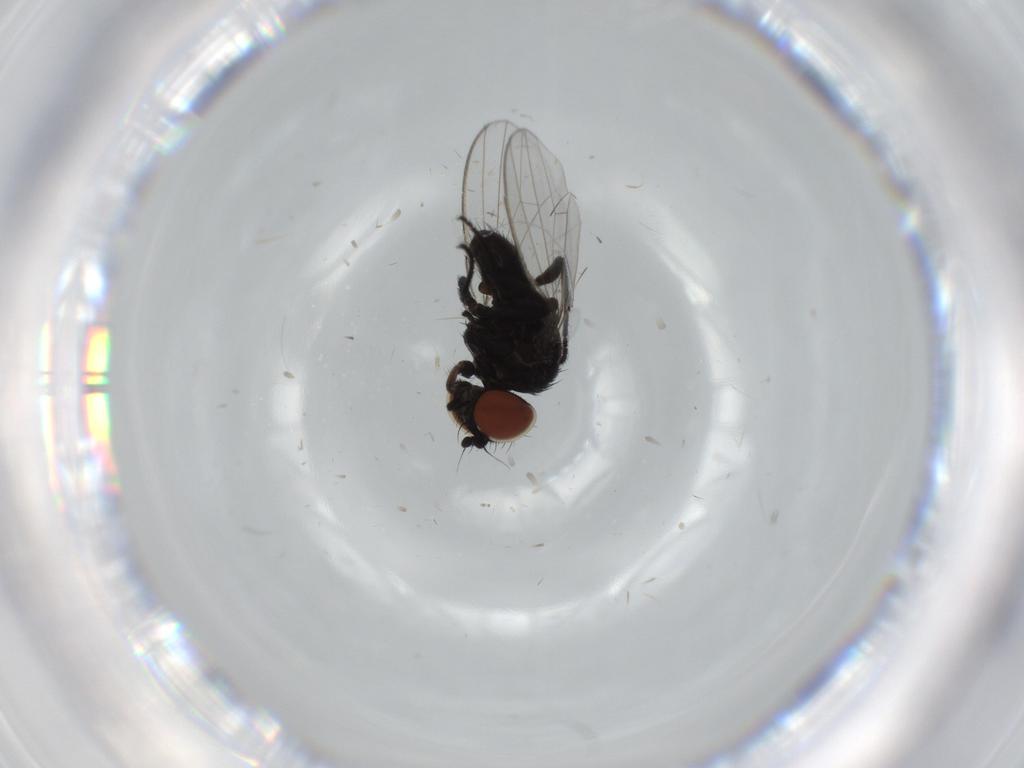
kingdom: Animalia
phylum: Arthropoda
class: Insecta
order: Diptera
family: Milichiidae
